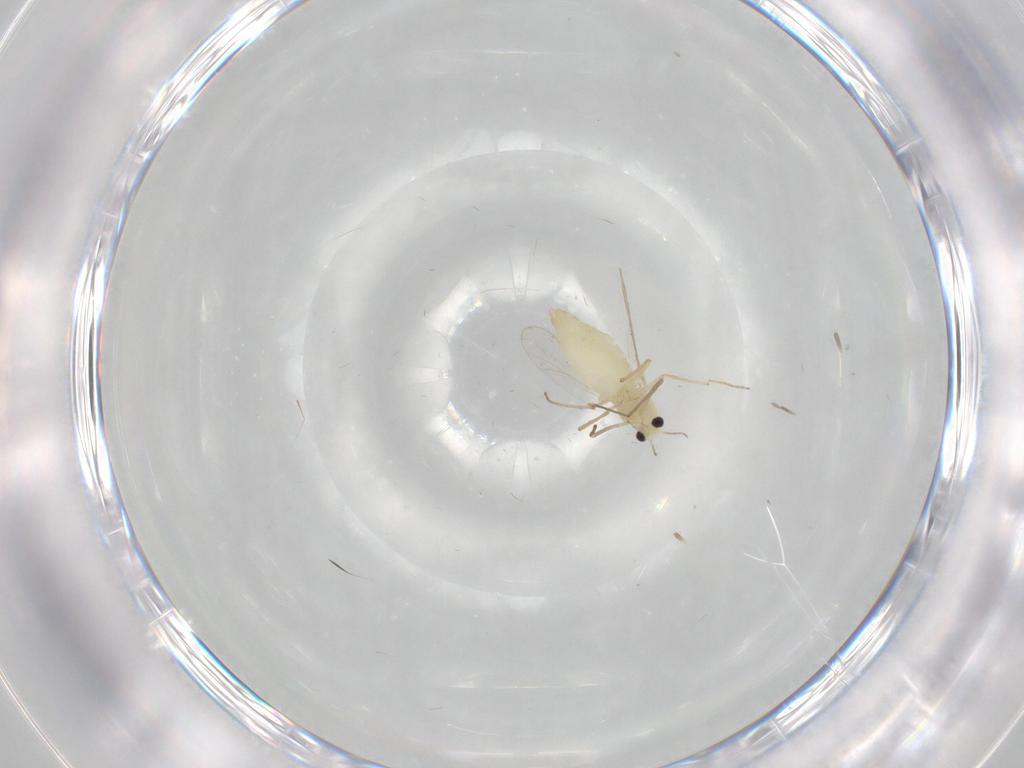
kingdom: Animalia
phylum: Arthropoda
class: Insecta
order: Diptera
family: Chironomidae
